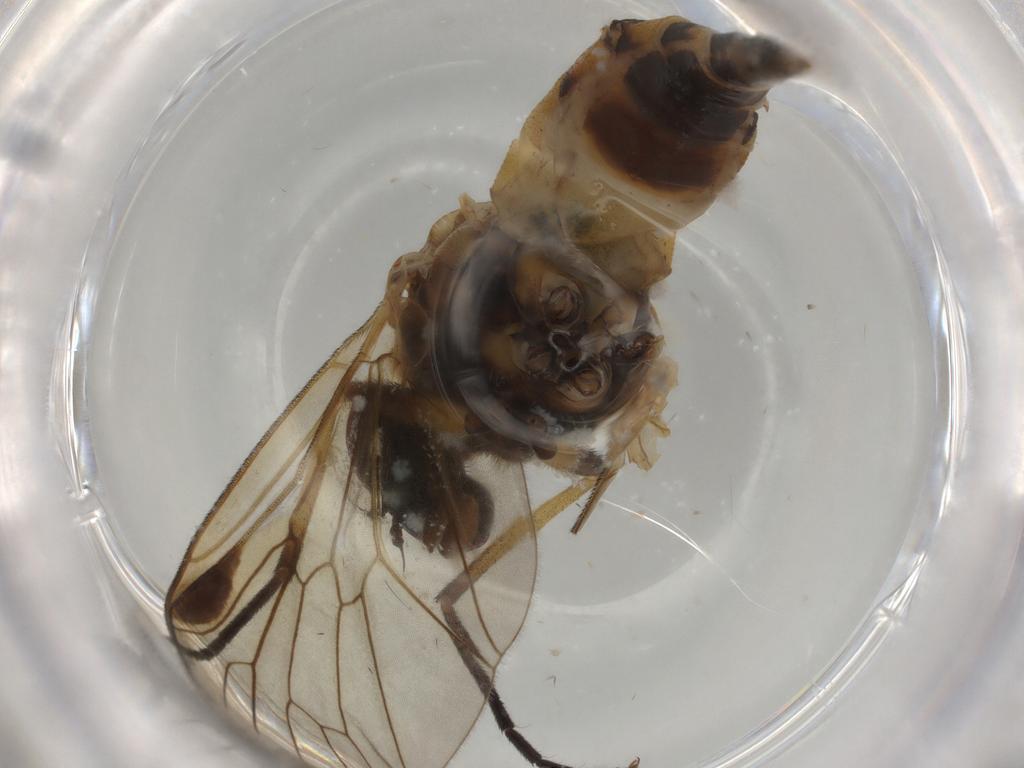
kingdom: Animalia
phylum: Arthropoda
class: Insecta
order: Diptera
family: Rhagionidae
